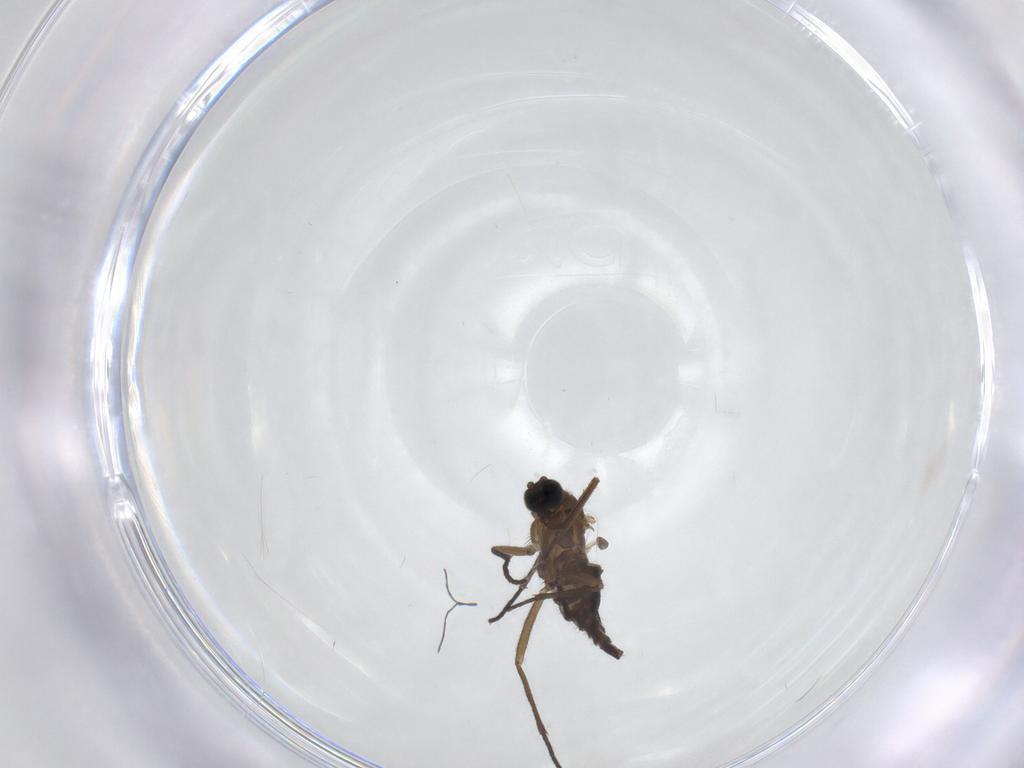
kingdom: Animalia
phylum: Arthropoda
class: Insecta
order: Diptera
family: Sciaridae
